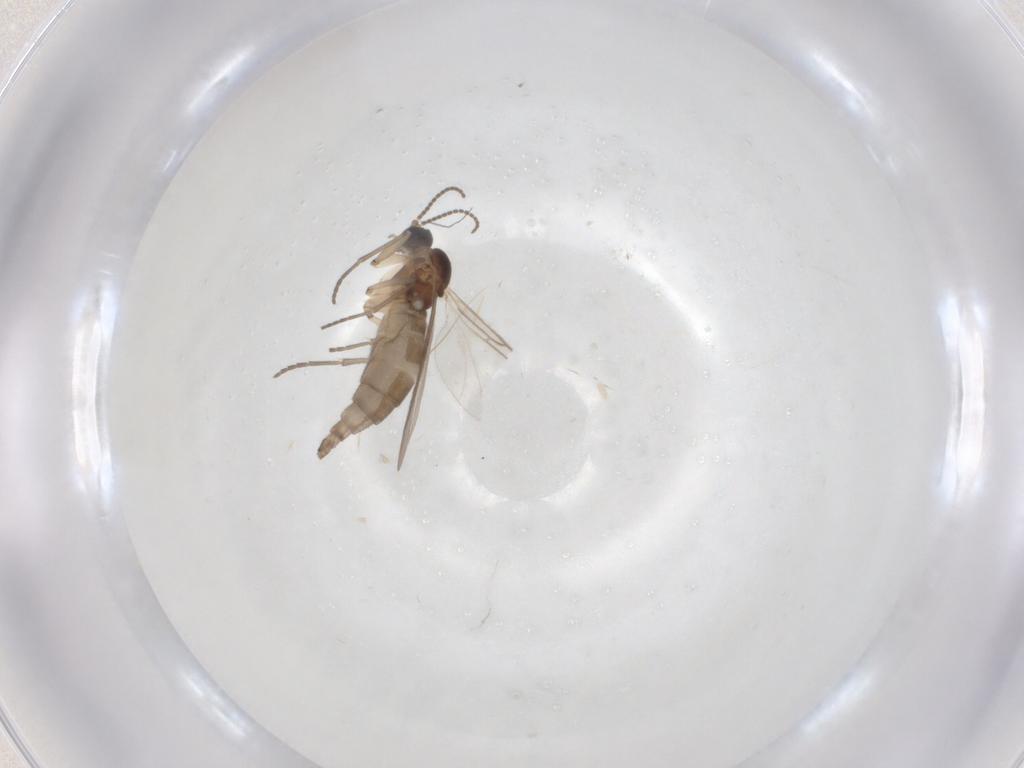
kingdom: Animalia
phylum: Arthropoda
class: Insecta
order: Diptera
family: Sciaridae
